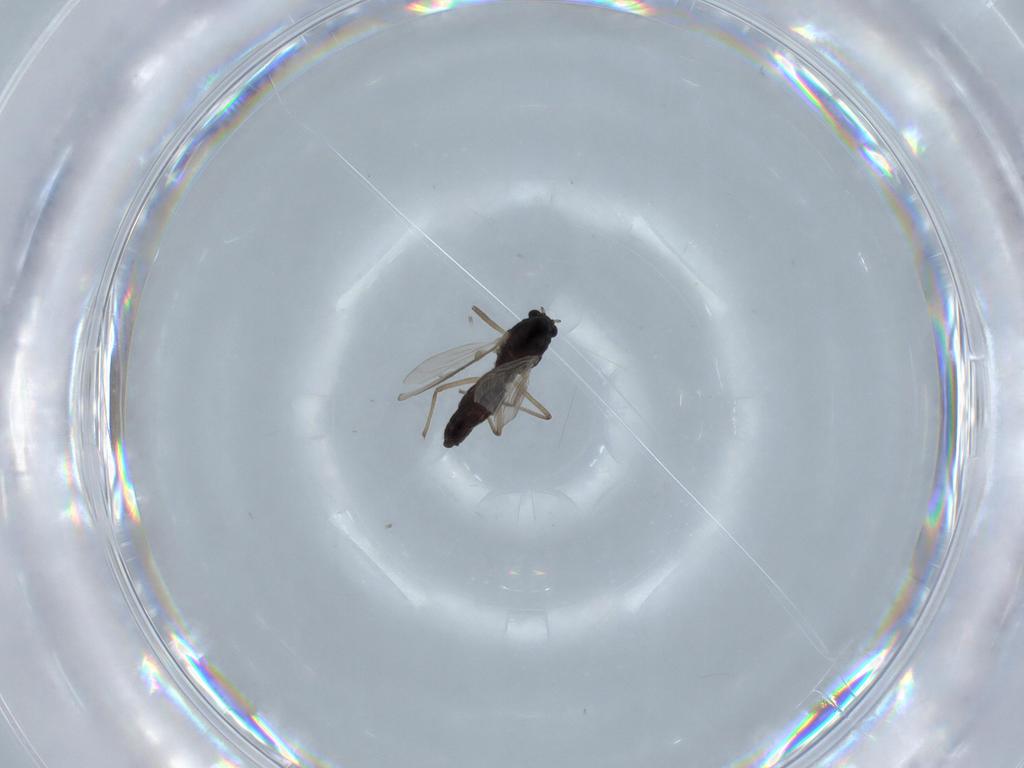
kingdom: Animalia
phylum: Arthropoda
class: Insecta
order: Diptera
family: Chironomidae
